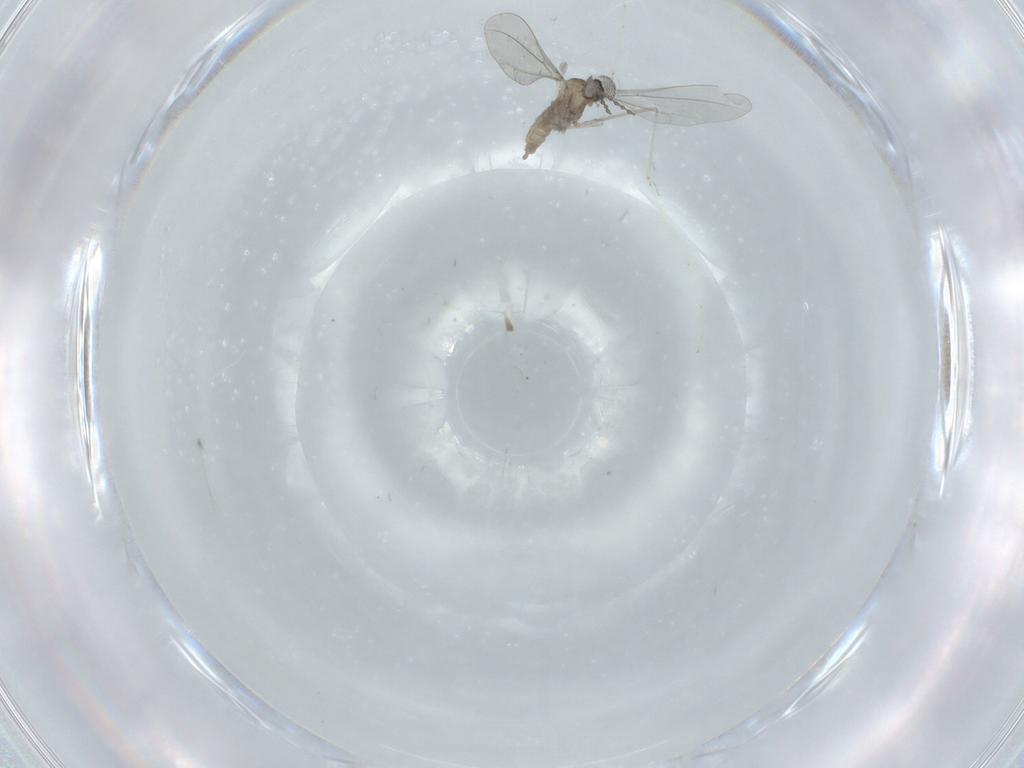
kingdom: Animalia
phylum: Arthropoda
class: Insecta
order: Diptera
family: Cecidomyiidae
